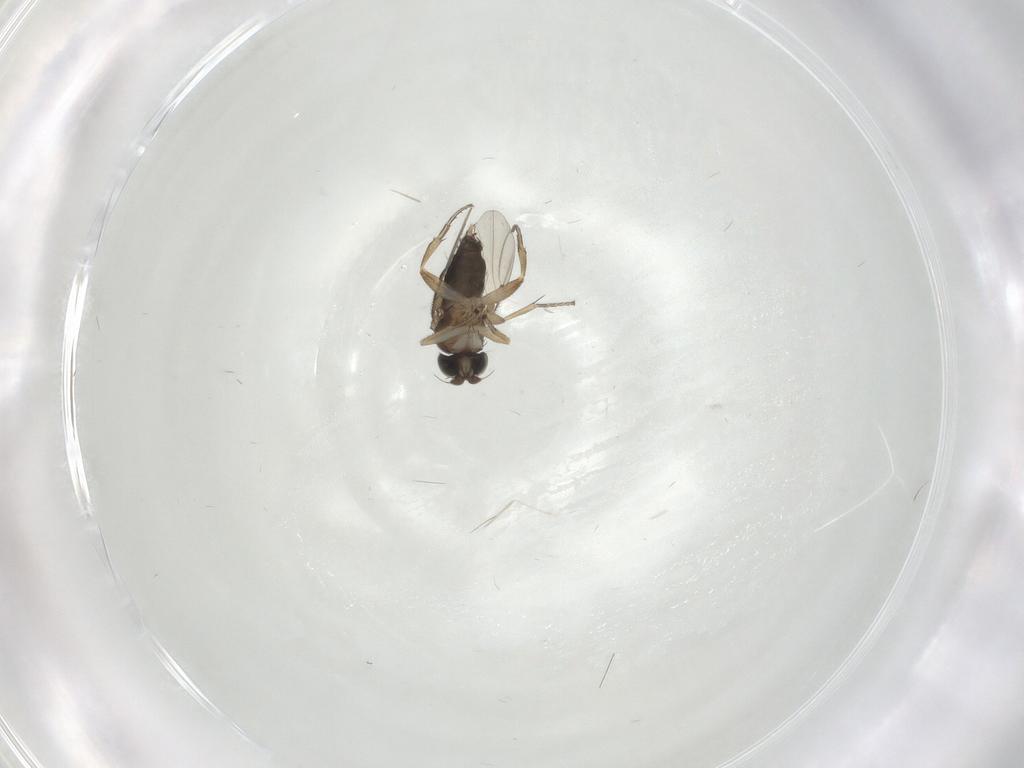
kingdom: Animalia
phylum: Arthropoda
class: Insecta
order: Diptera
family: Phoridae
